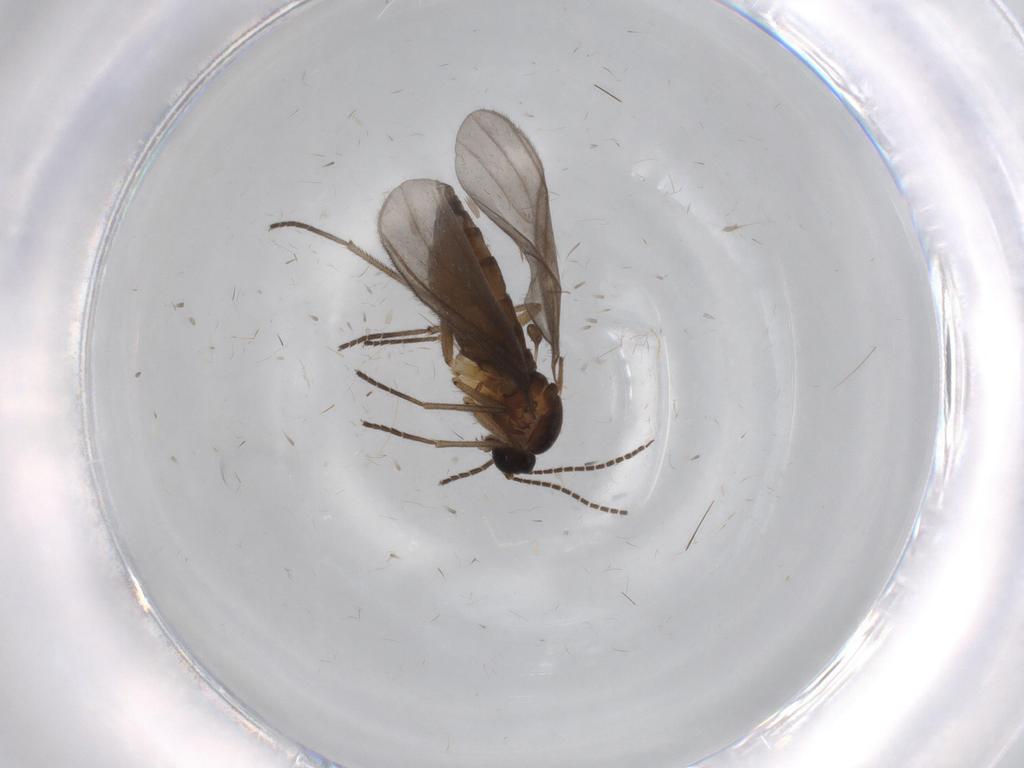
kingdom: Animalia
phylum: Arthropoda
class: Insecta
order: Diptera
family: Sciaridae
